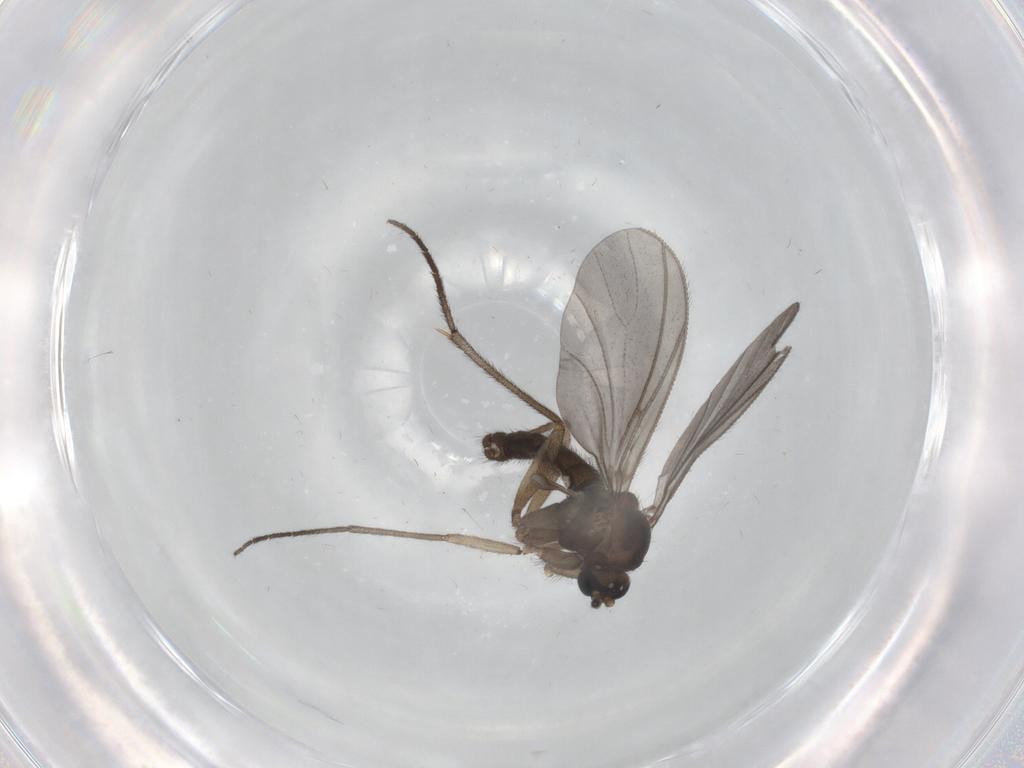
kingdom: Animalia
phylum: Arthropoda
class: Insecta
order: Diptera
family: Sciaridae
